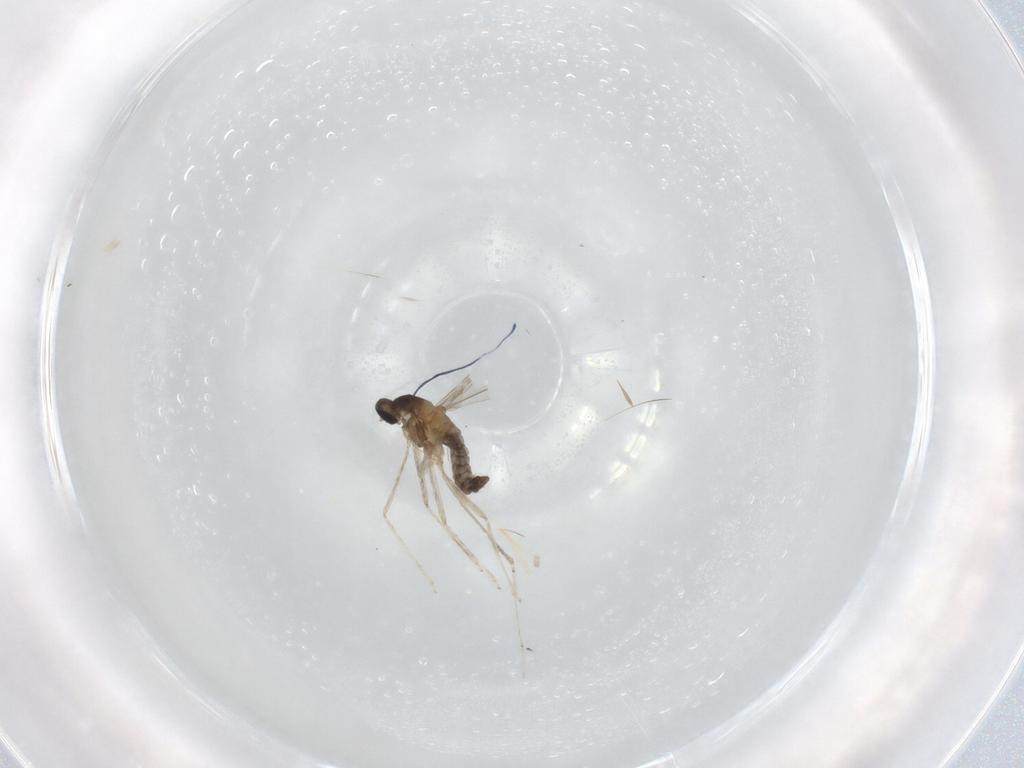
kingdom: Animalia
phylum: Arthropoda
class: Insecta
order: Diptera
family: Cecidomyiidae
